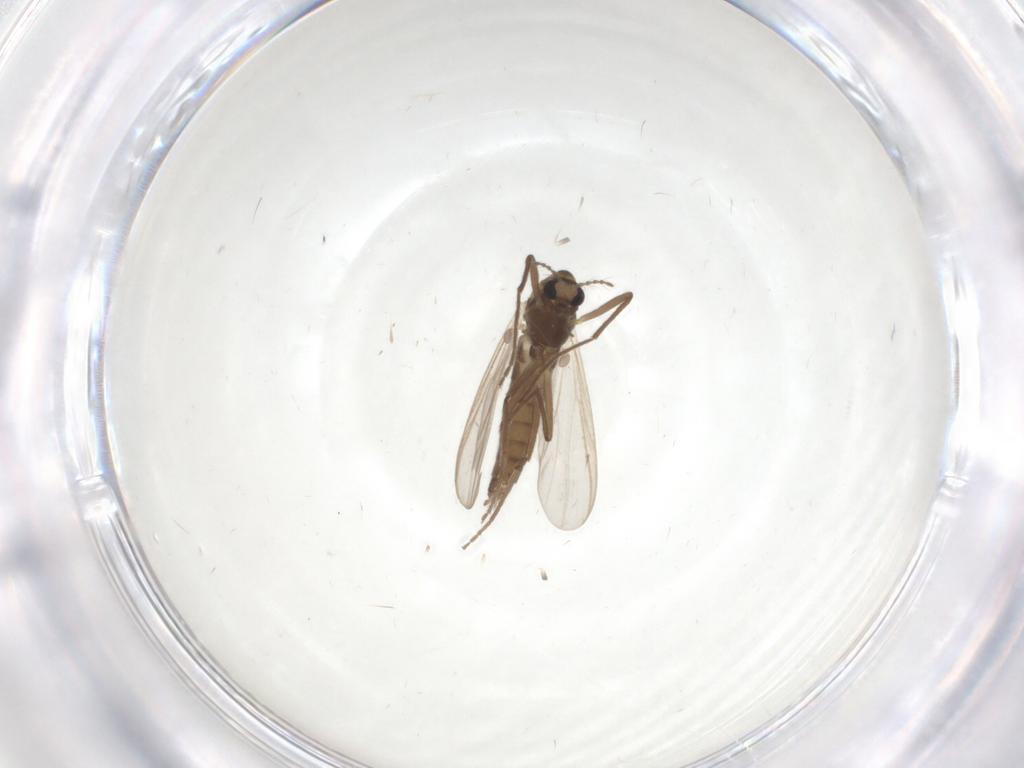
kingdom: Animalia
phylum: Arthropoda
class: Insecta
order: Diptera
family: Chironomidae
